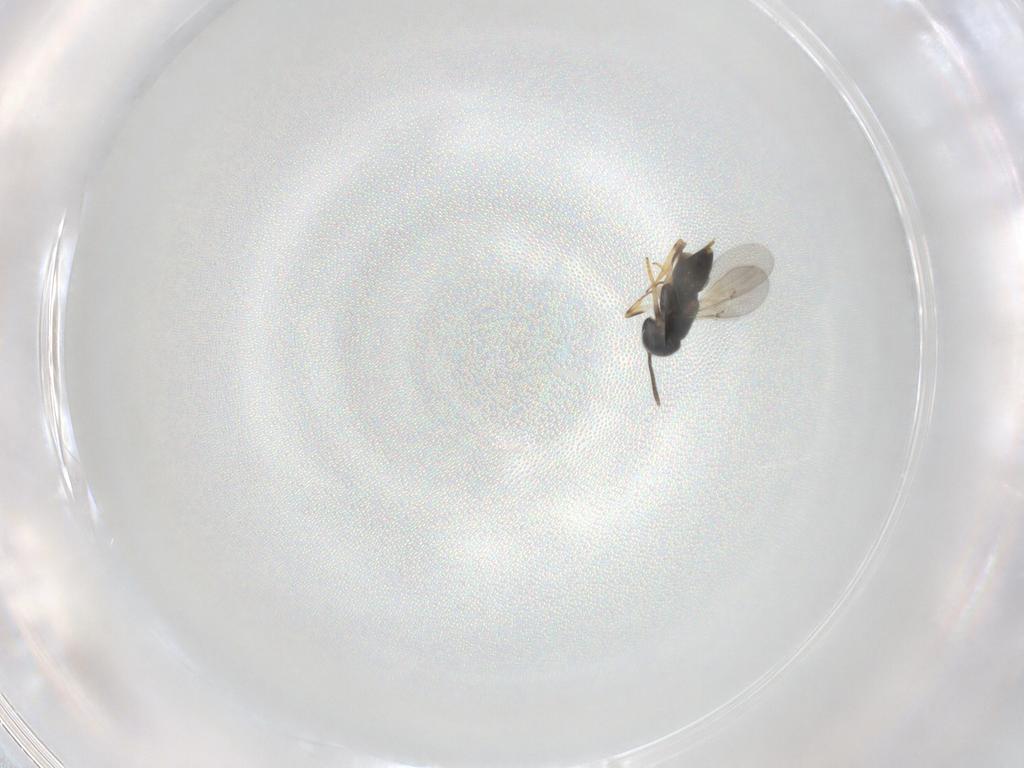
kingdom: Animalia
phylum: Arthropoda
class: Insecta
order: Hymenoptera
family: Encyrtidae
